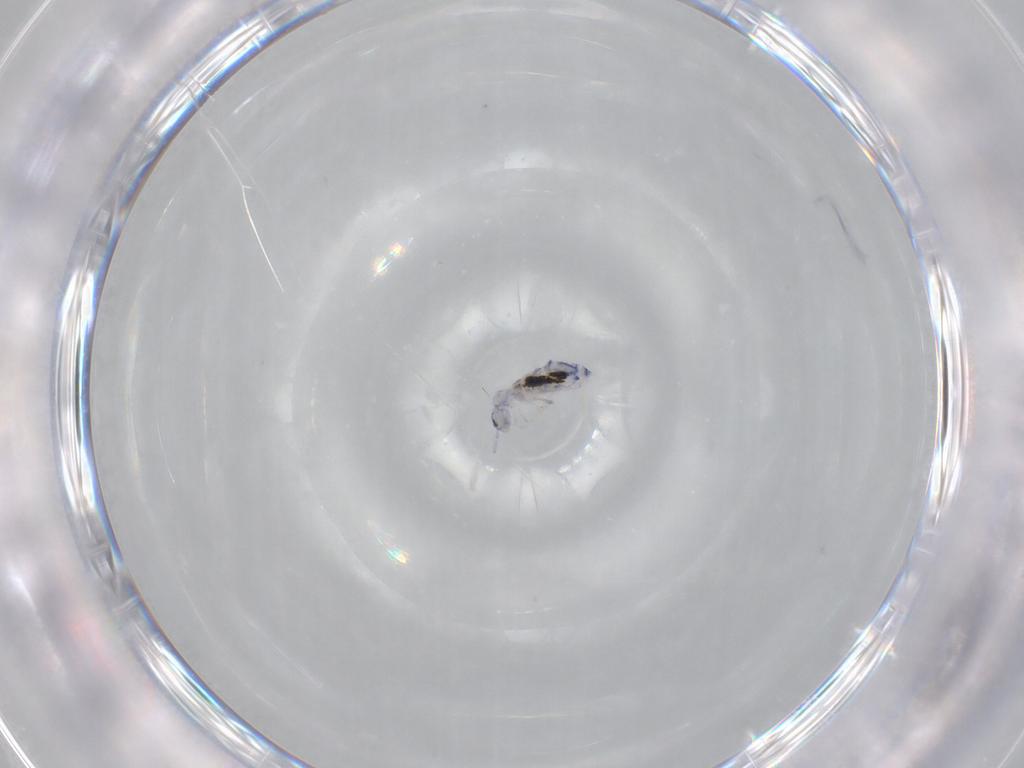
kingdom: Animalia
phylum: Arthropoda
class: Collembola
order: Entomobryomorpha
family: Entomobryidae
